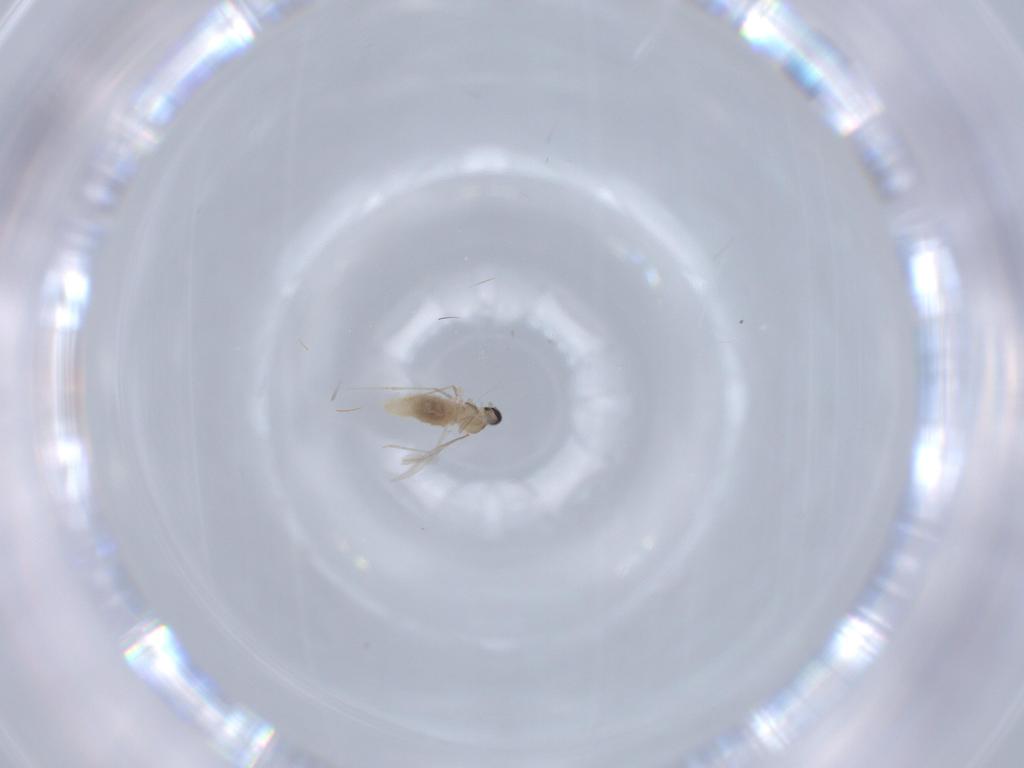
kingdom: Animalia
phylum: Arthropoda
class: Insecta
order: Diptera
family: Cecidomyiidae
